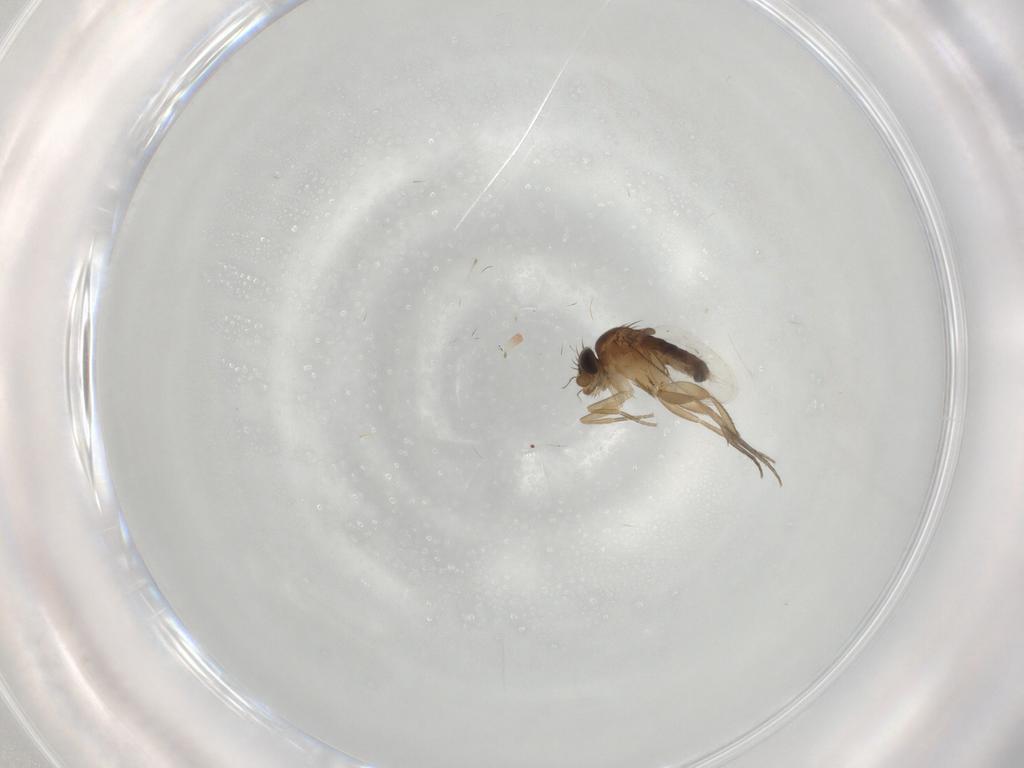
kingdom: Animalia
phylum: Arthropoda
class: Insecta
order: Diptera
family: Phoridae
